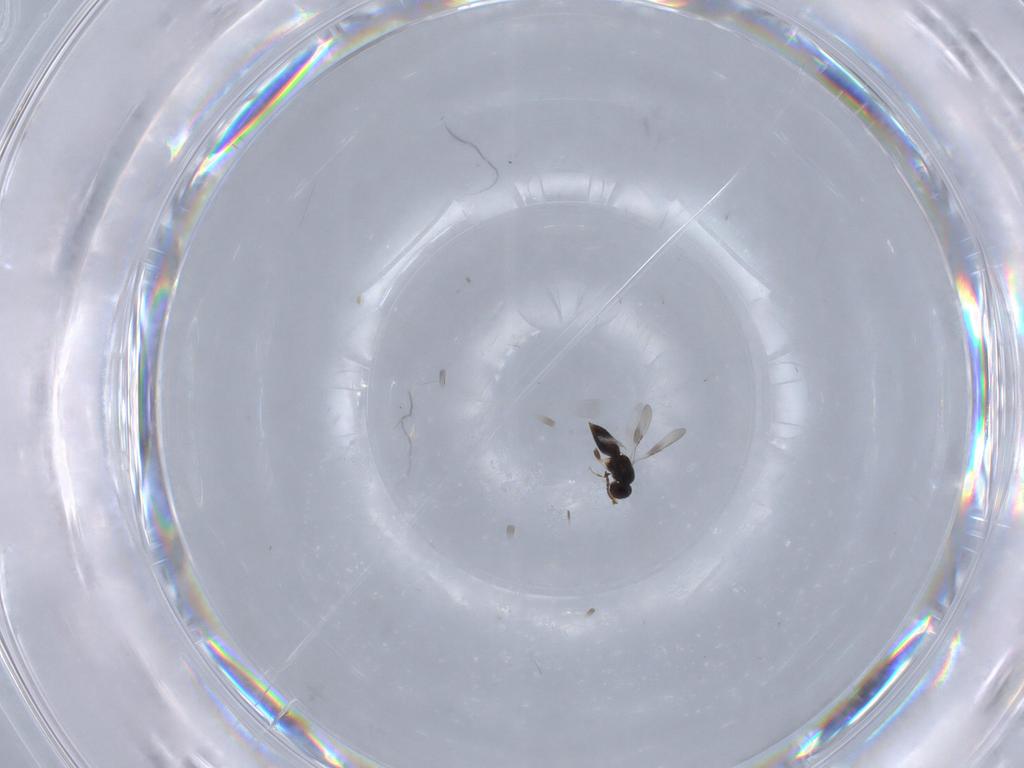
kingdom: Animalia
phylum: Arthropoda
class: Insecta
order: Hymenoptera
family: Ceraphronidae
